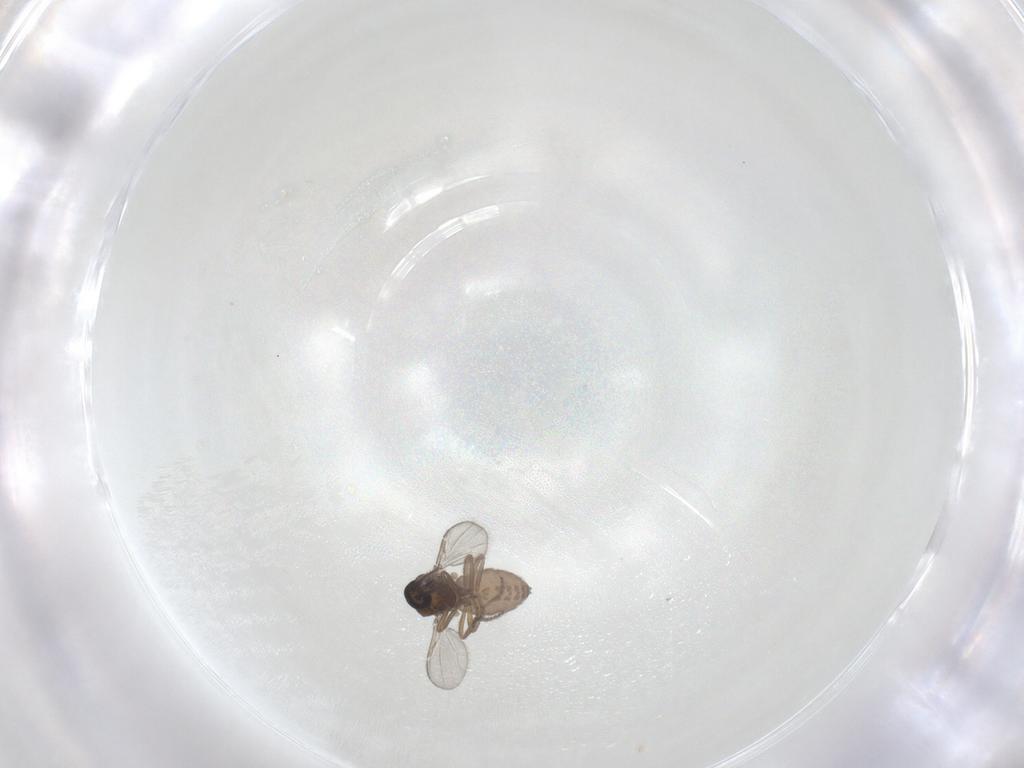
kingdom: Animalia
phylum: Arthropoda
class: Insecta
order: Diptera
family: Ceratopogonidae
